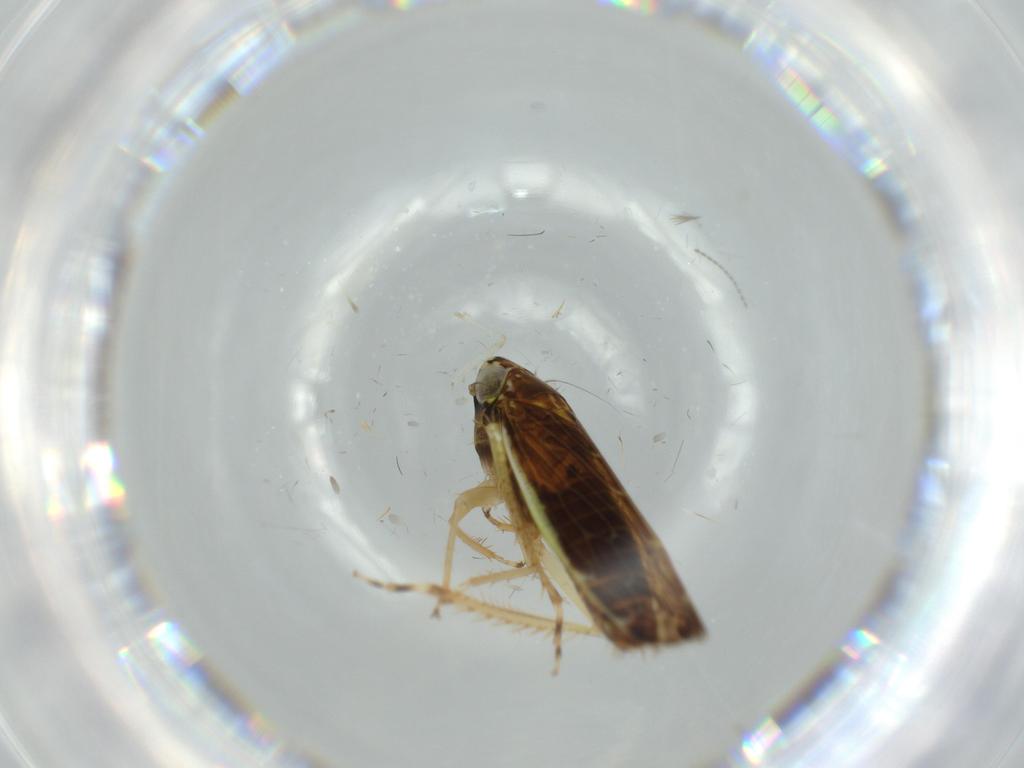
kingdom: Animalia
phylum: Arthropoda
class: Insecta
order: Hemiptera
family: Cicadellidae
